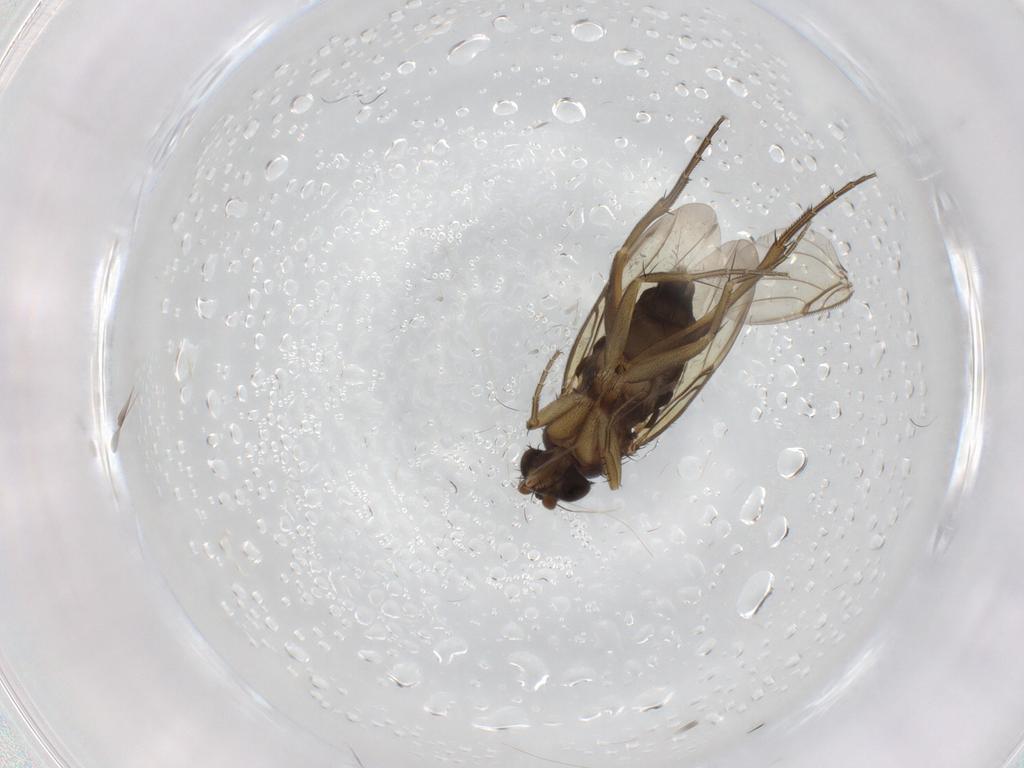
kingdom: Animalia
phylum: Arthropoda
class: Insecta
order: Diptera
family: Phoridae
